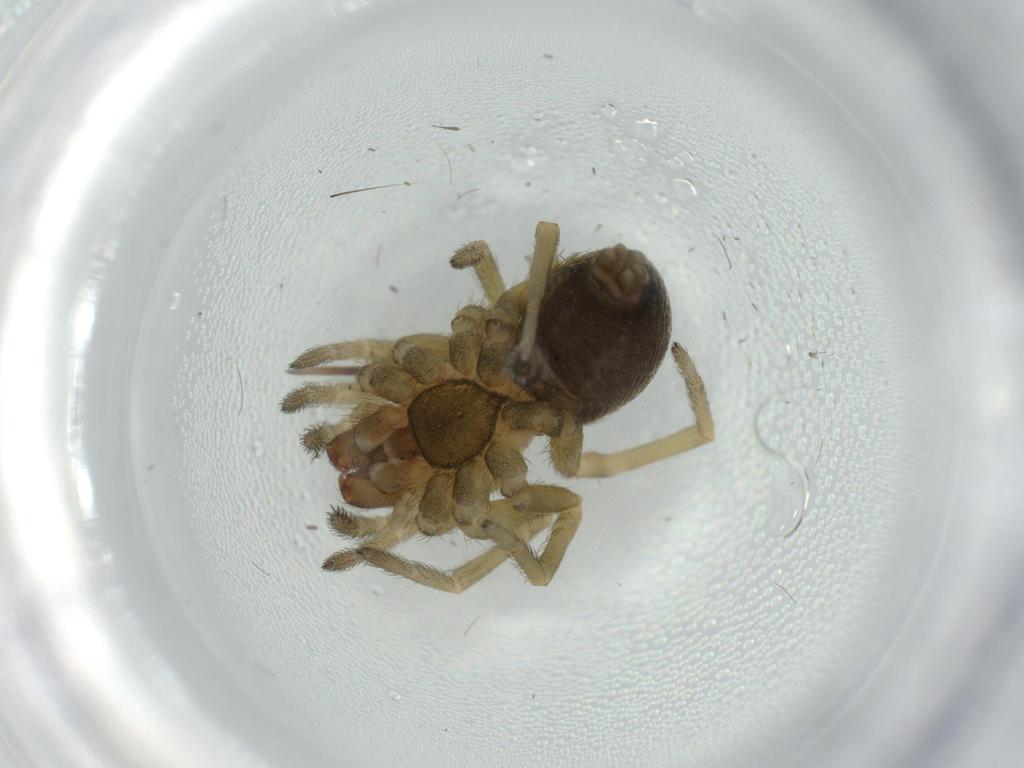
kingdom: Animalia
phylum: Arthropoda
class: Arachnida
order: Araneae
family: Titanoecidae
